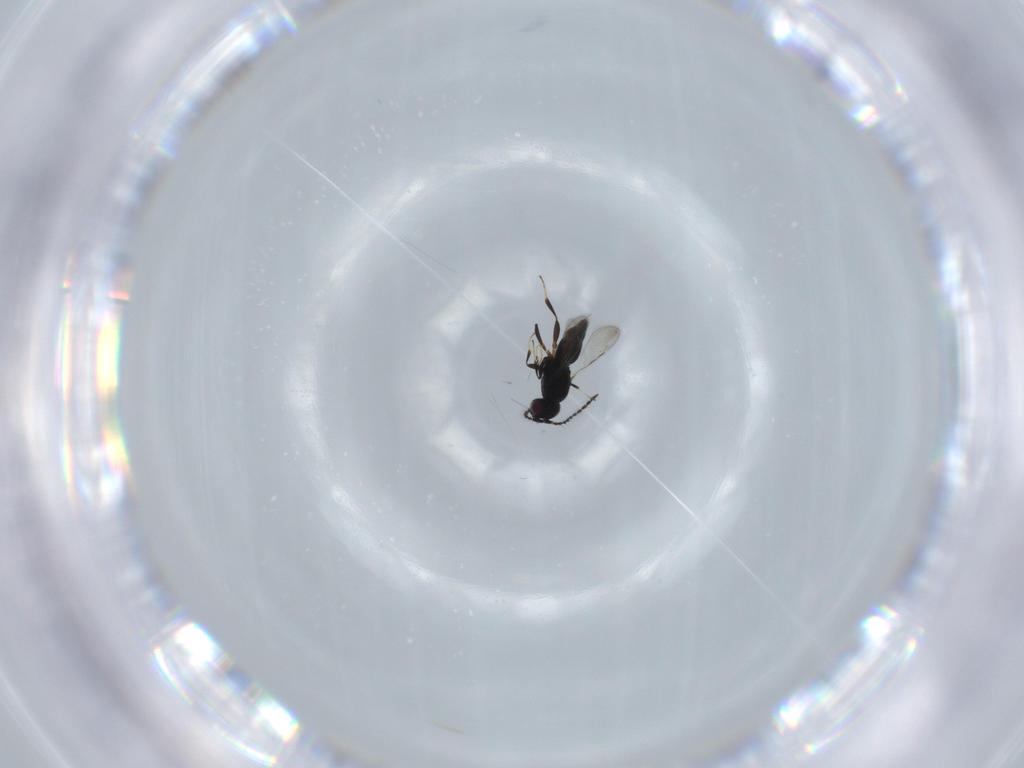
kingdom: Animalia
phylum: Arthropoda
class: Insecta
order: Hymenoptera
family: Ceraphronidae
